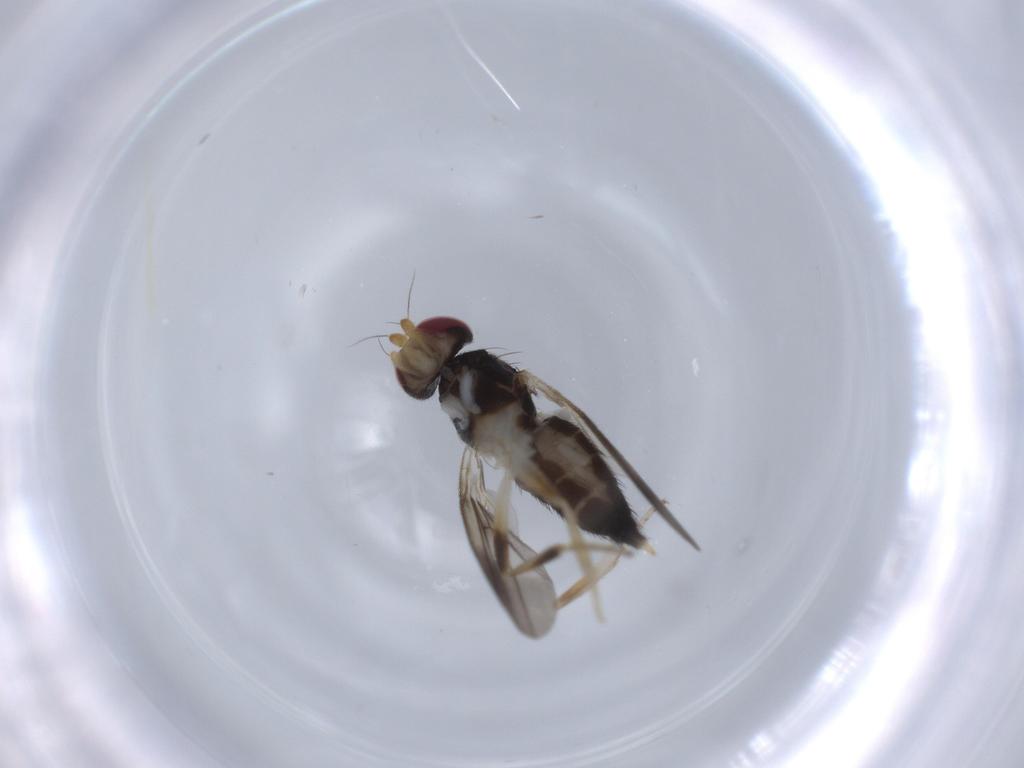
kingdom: Animalia
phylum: Arthropoda
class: Insecta
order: Diptera
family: Clusiidae
